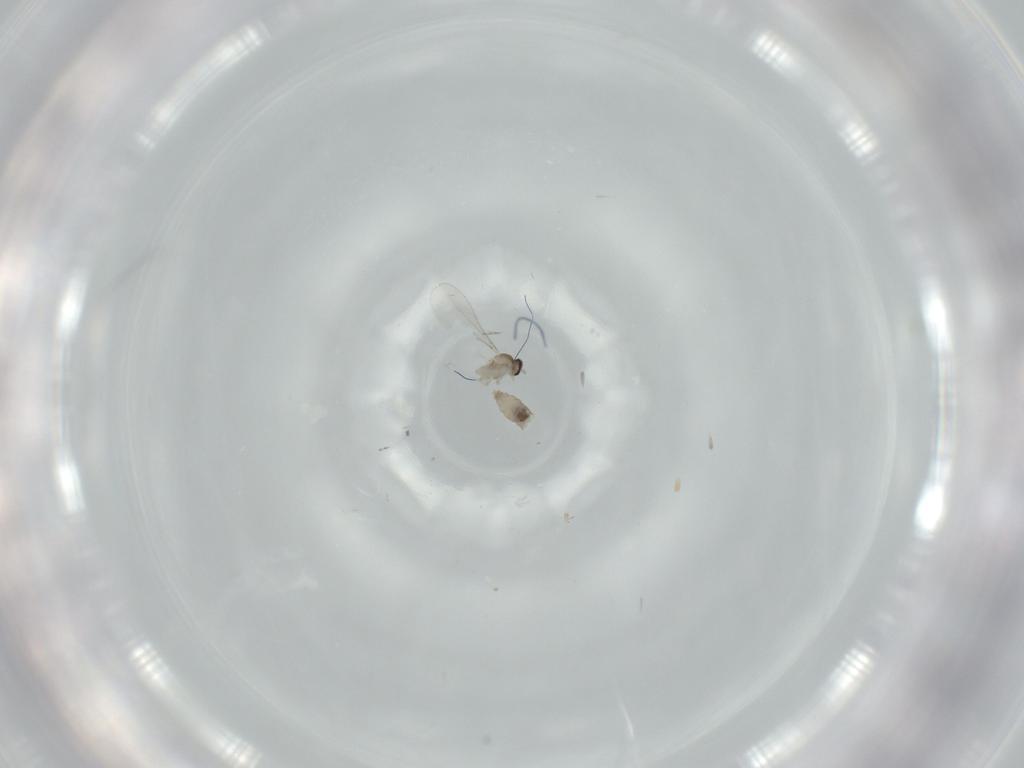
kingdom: Animalia
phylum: Arthropoda
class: Insecta
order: Diptera
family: Cecidomyiidae
